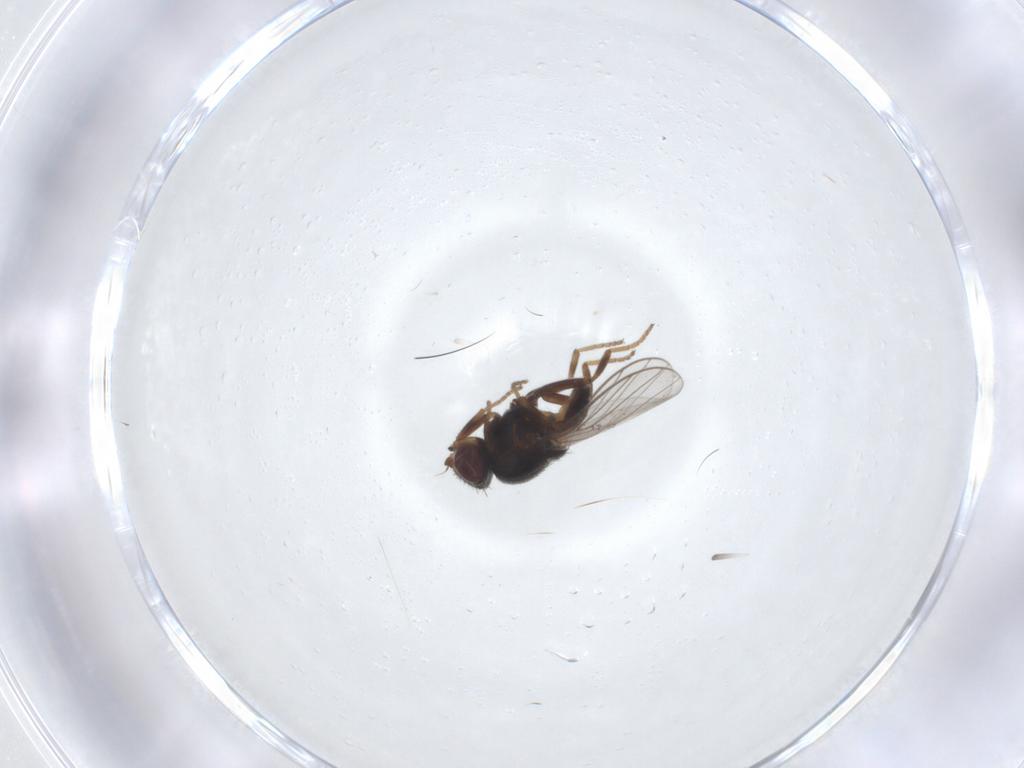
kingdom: Animalia
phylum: Arthropoda
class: Insecta
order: Diptera
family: Chloropidae
